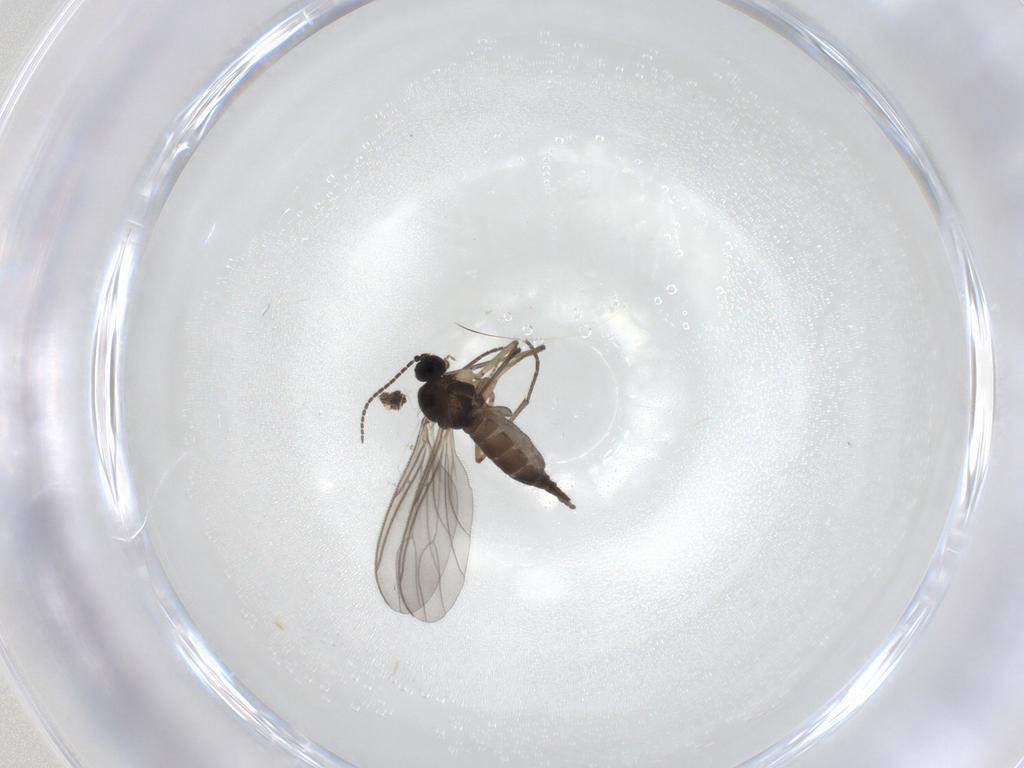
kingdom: Animalia
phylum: Arthropoda
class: Insecta
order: Diptera
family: Sciaridae
